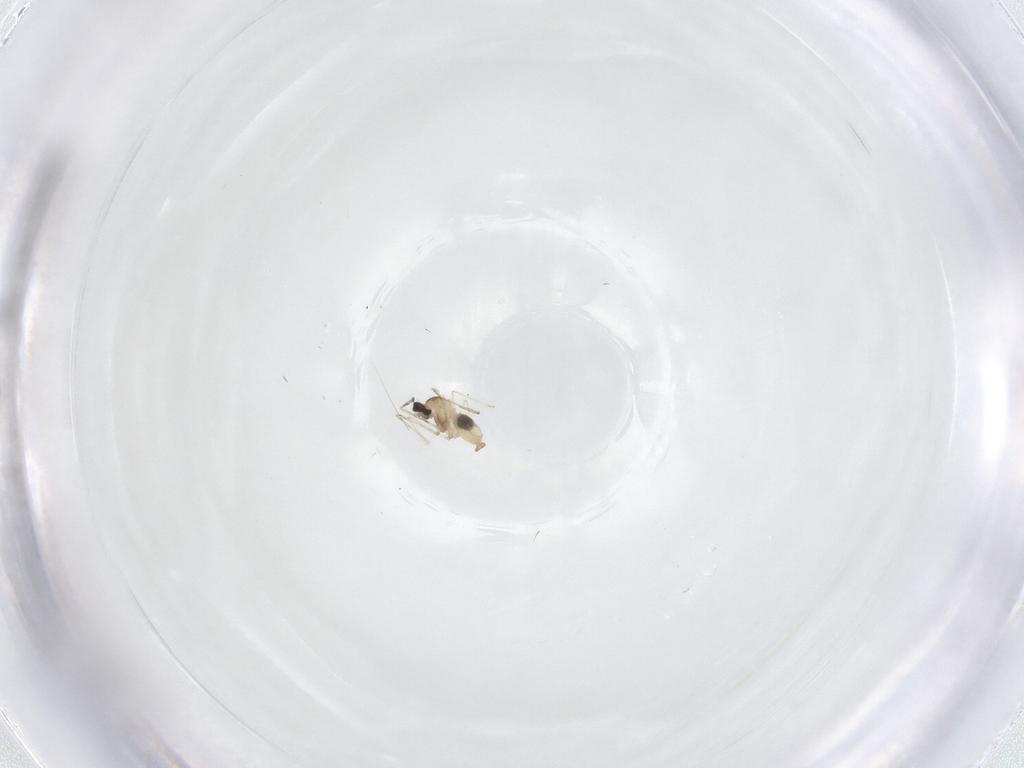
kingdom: Animalia
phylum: Arthropoda
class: Insecta
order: Diptera
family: Cecidomyiidae
